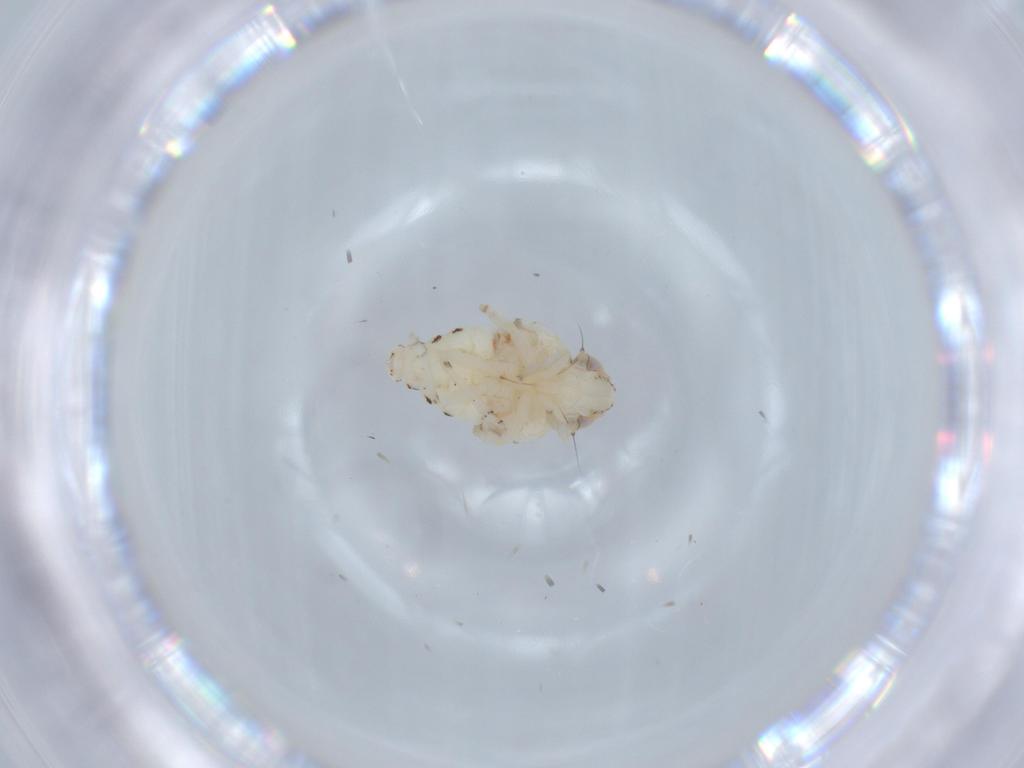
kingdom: Animalia
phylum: Arthropoda
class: Insecta
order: Hemiptera
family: Nogodinidae
